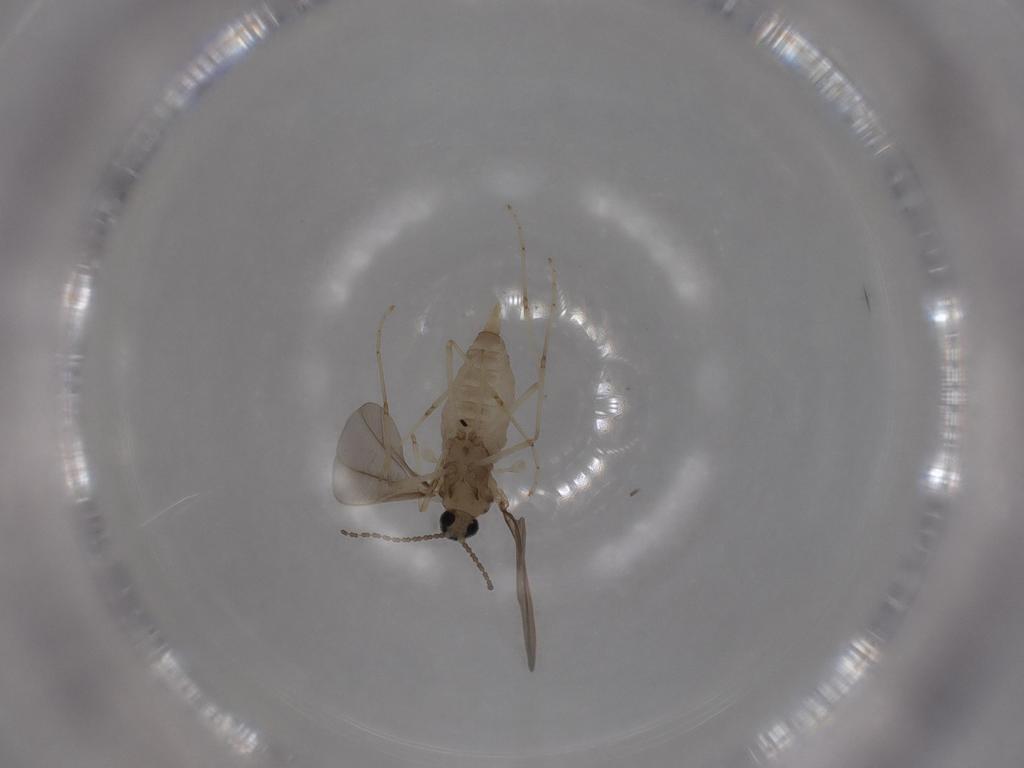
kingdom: Animalia
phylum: Arthropoda
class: Insecta
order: Diptera
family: Cecidomyiidae
